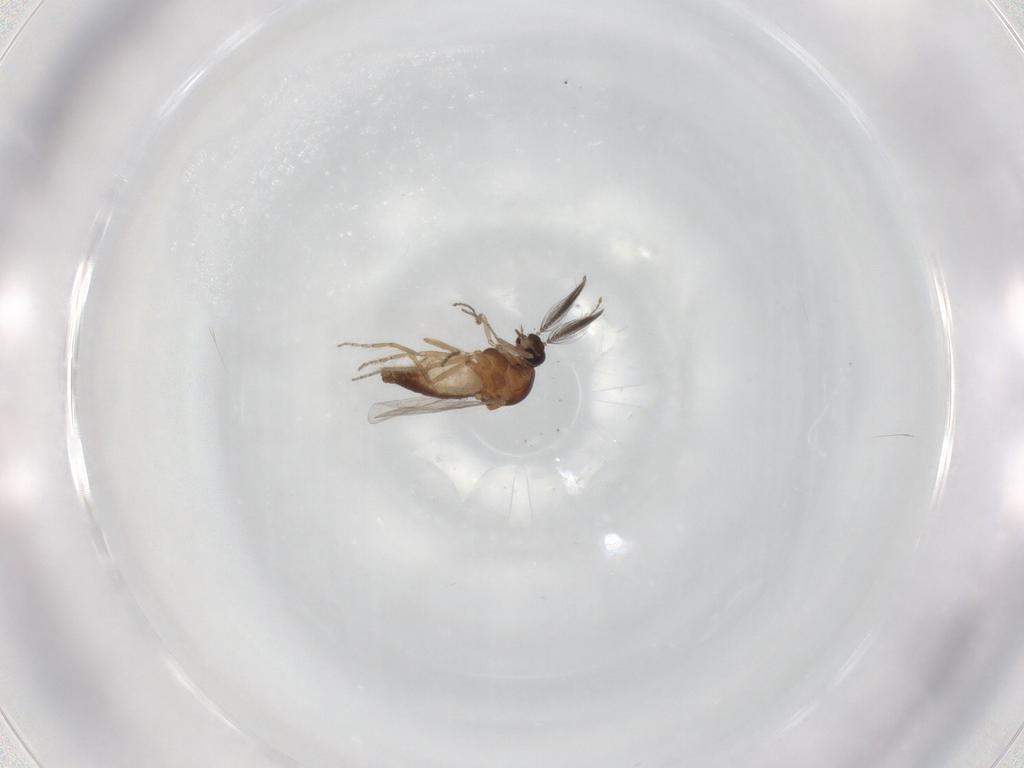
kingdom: Animalia
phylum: Arthropoda
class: Insecta
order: Diptera
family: Ceratopogonidae
